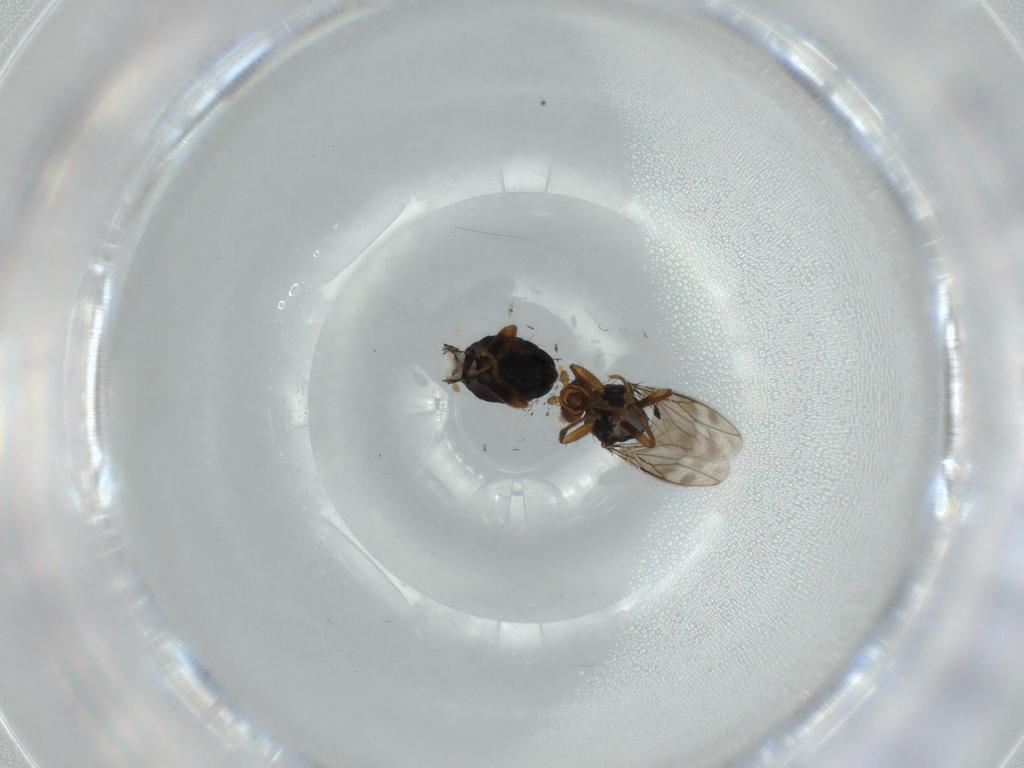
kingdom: Animalia
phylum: Arthropoda
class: Insecta
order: Diptera
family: Sphaeroceridae
